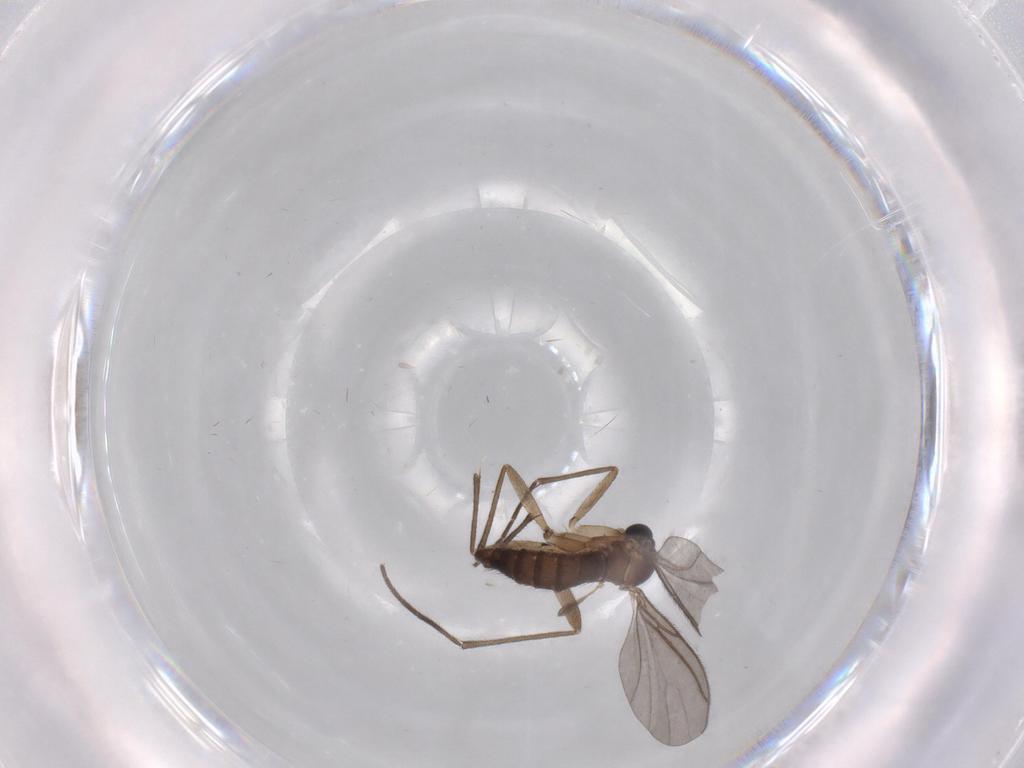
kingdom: Animalia
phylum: Arthropoda
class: Insecta
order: Diptera
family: Sciaridae
